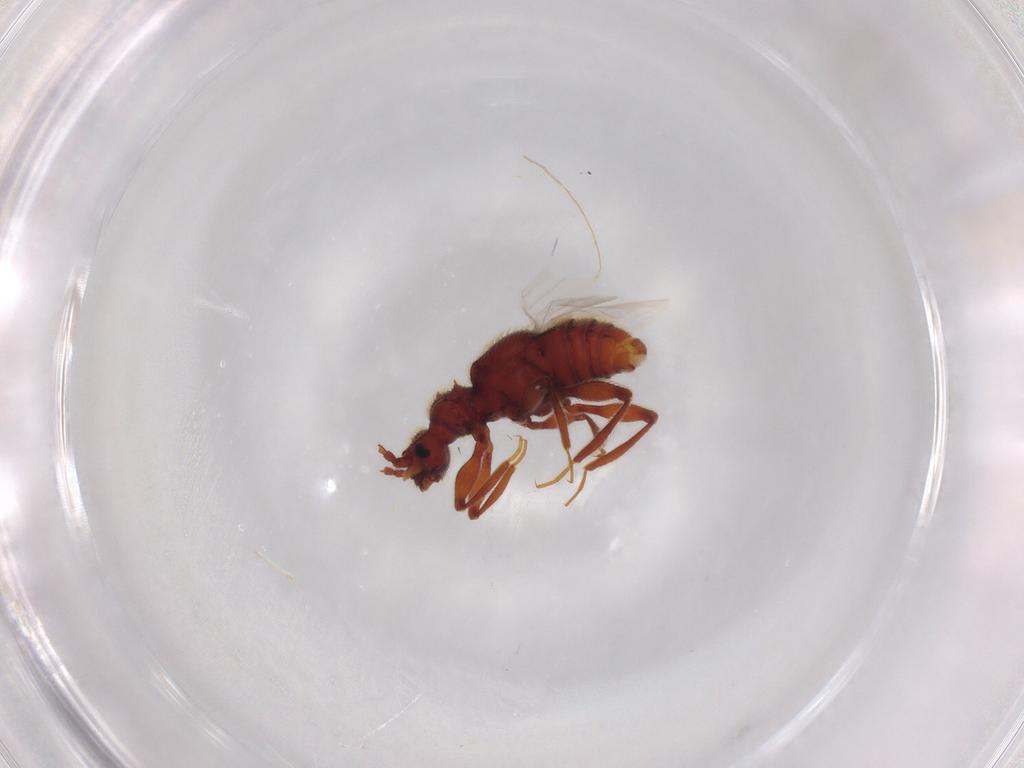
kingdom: Animalia
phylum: Arthropoda
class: Insecta
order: Coleoptera
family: Staphylinidae
